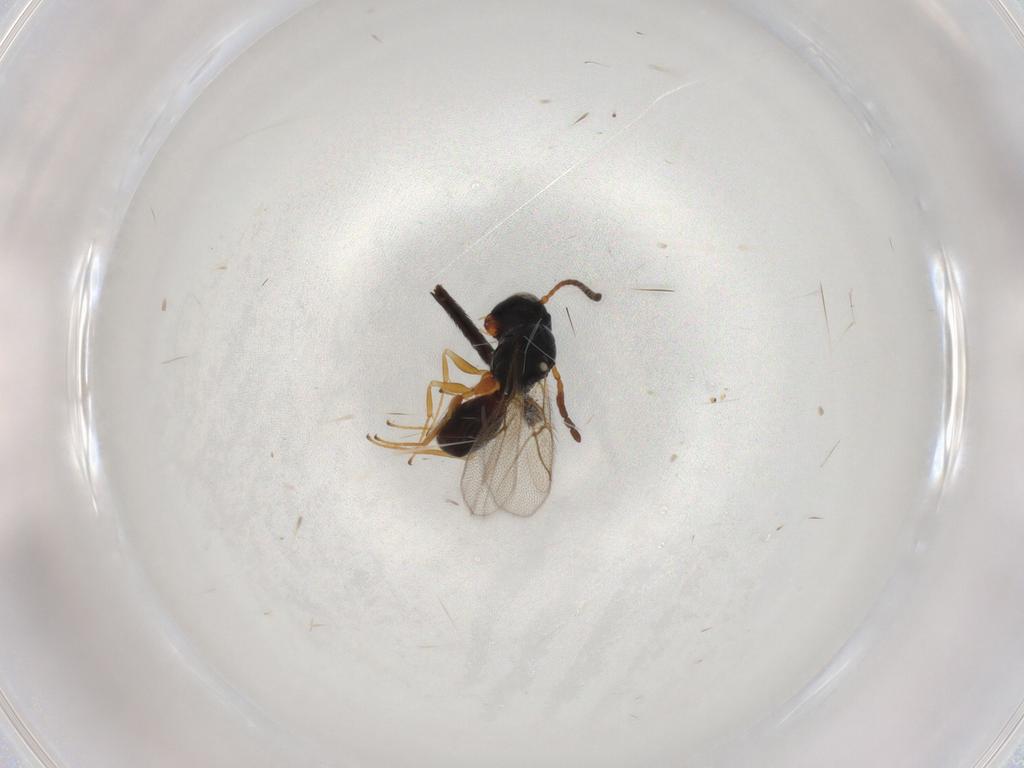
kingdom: Animalia
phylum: Arthropoda
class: Insecta
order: Hymenoptera
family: Figitidae
